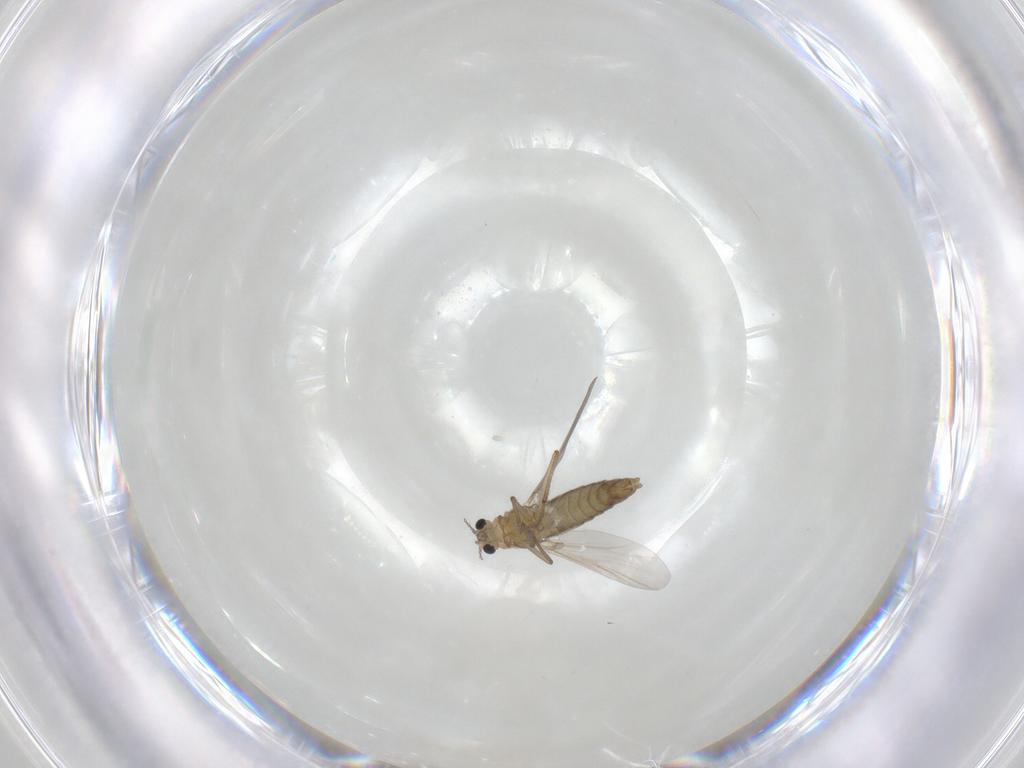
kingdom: Animalia
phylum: Arthropoda
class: Insecta
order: Diptera
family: Chironomidae
